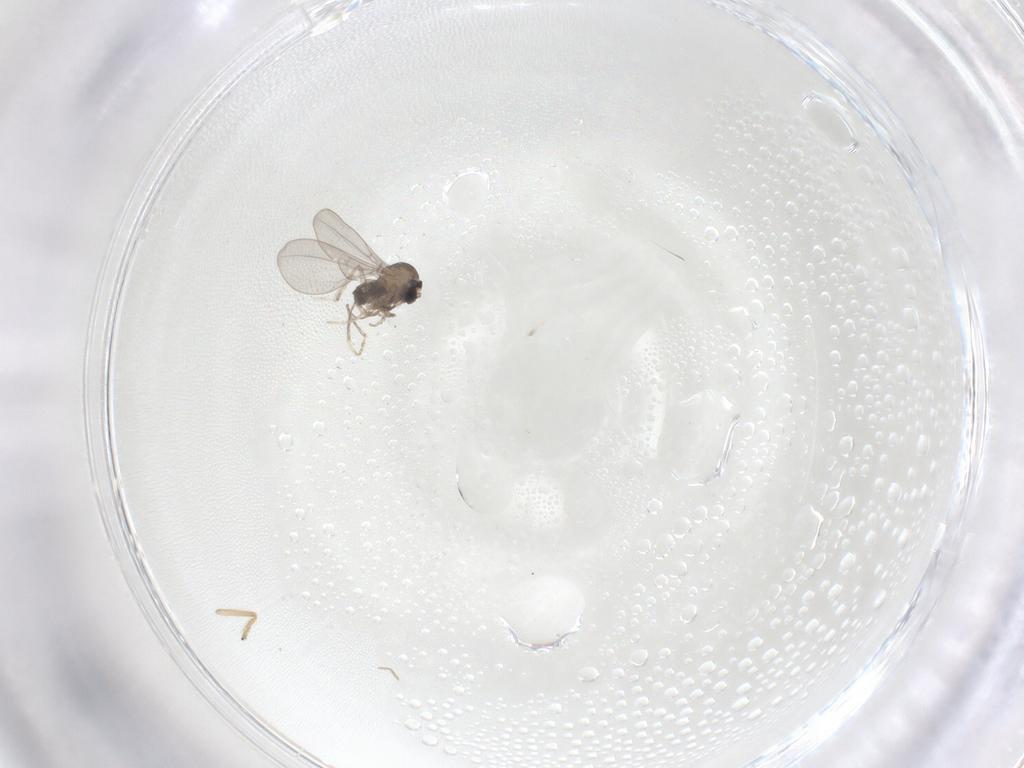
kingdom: Animalia
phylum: Arthropoda
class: Insecta
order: Diptera
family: Cecidomyiidae
